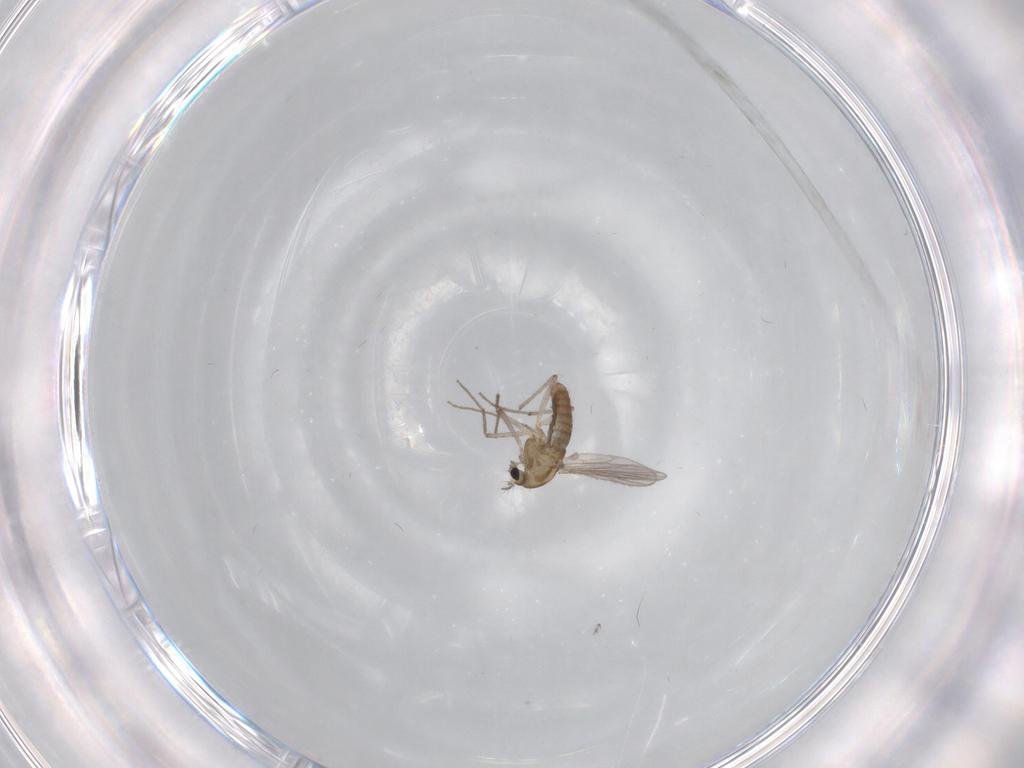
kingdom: Animalia
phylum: Arthropoda
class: Insecta
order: Diptera
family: Chironomidae
